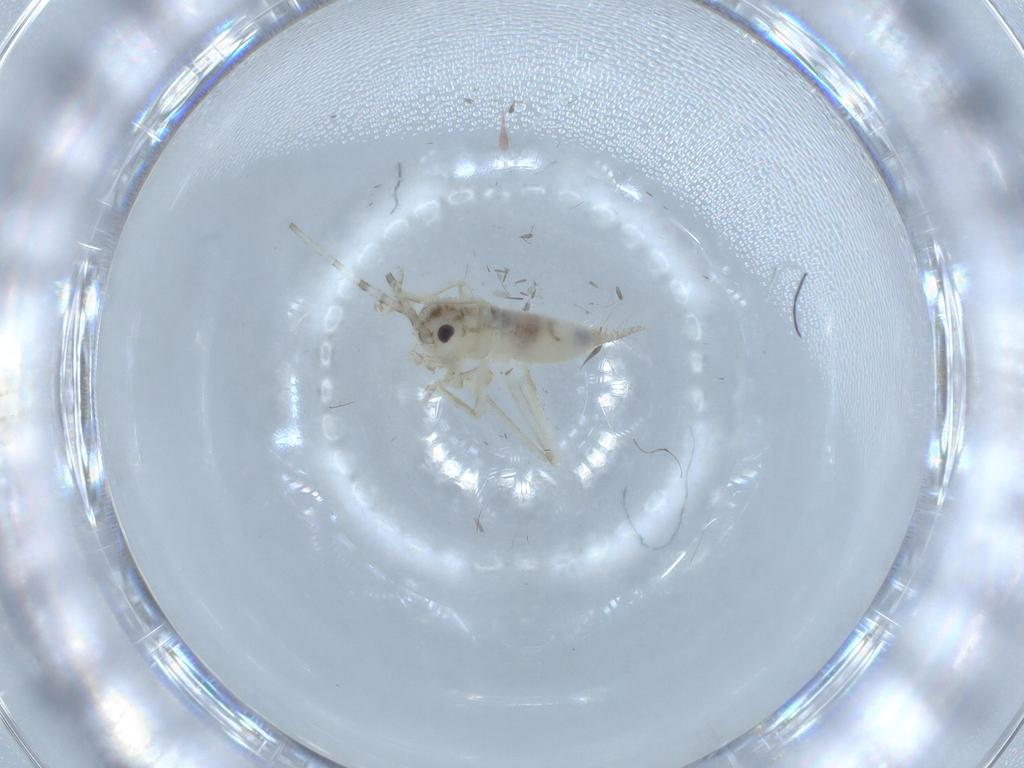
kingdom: Animalia
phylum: Arthropoda
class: Insecta
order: Orthoptera
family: Trigonidiidae
